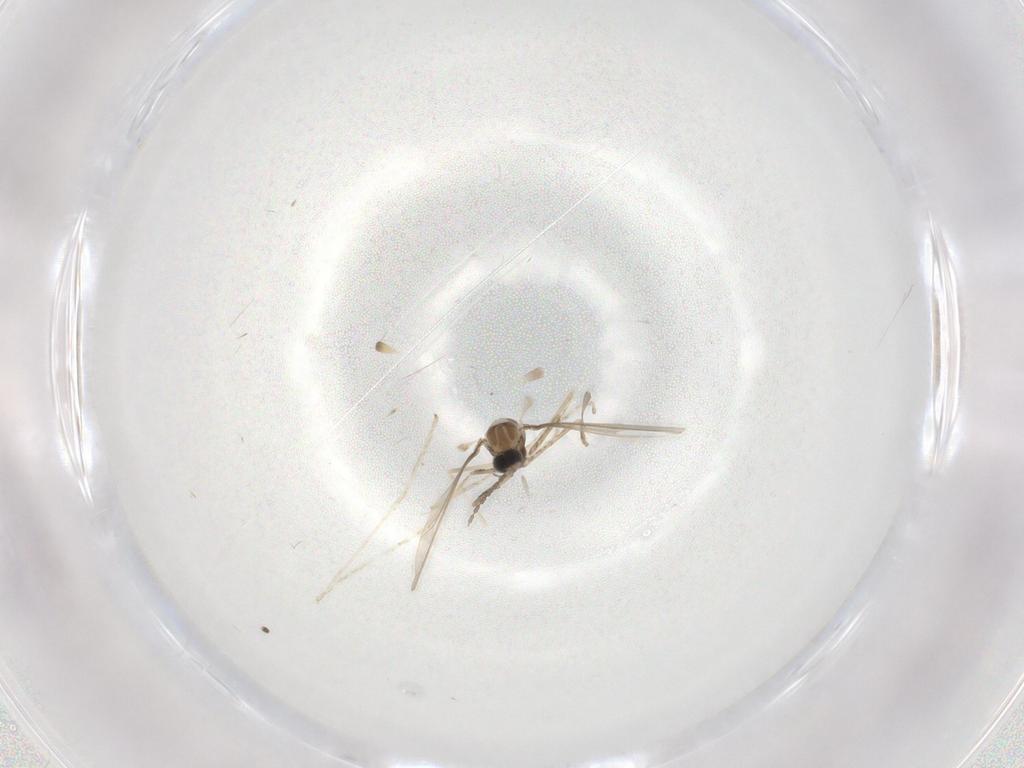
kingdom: Animalia
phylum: Arthropoda
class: Insecta
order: Diptera
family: Cecidomyiidae
